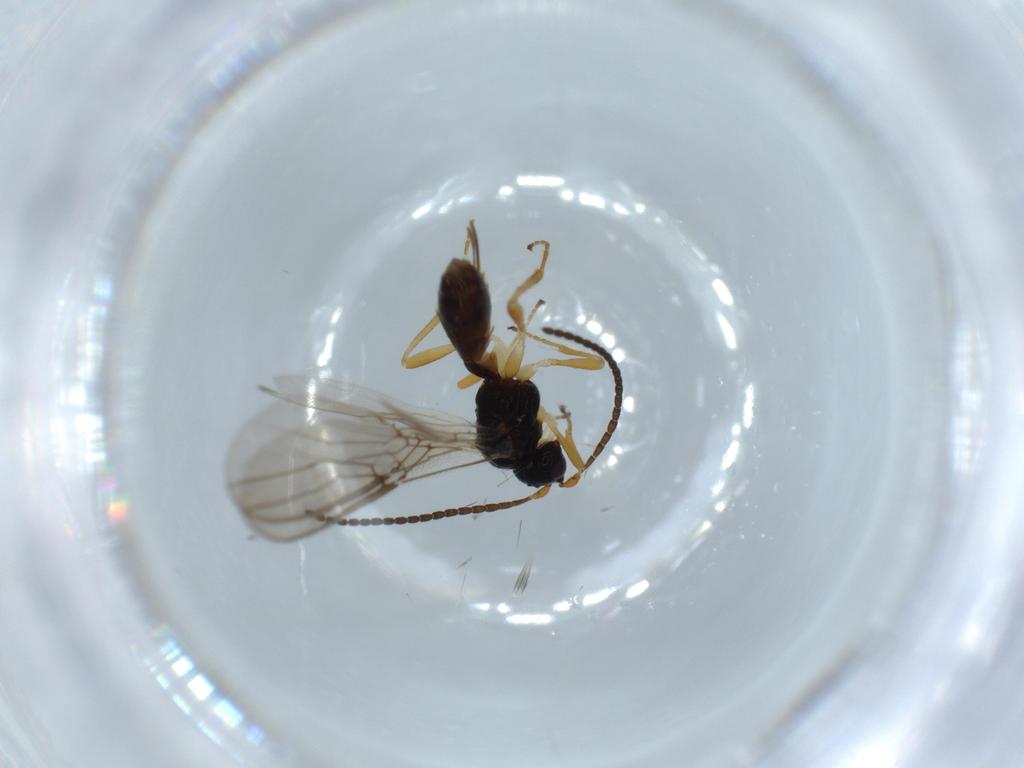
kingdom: Animalia
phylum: Arthropoda
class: Insecta
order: Hymenoptera
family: Braconidae
